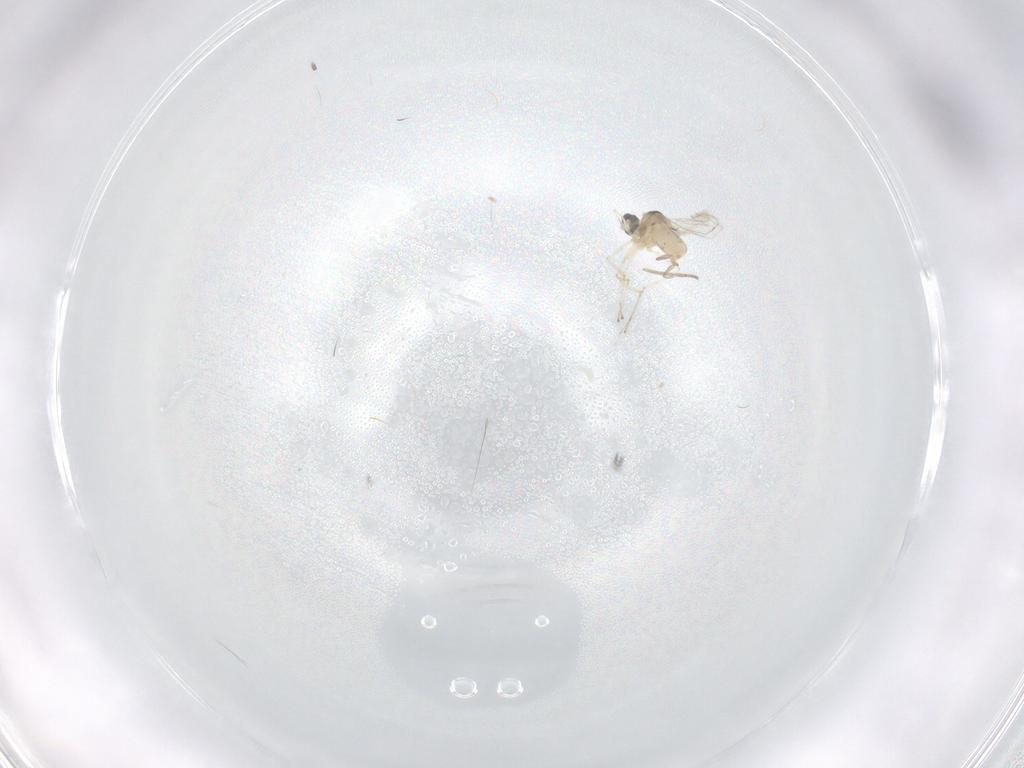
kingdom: Animalia
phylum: Arthropoda
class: Insecta
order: Diptera
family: Cecidomyiidae
